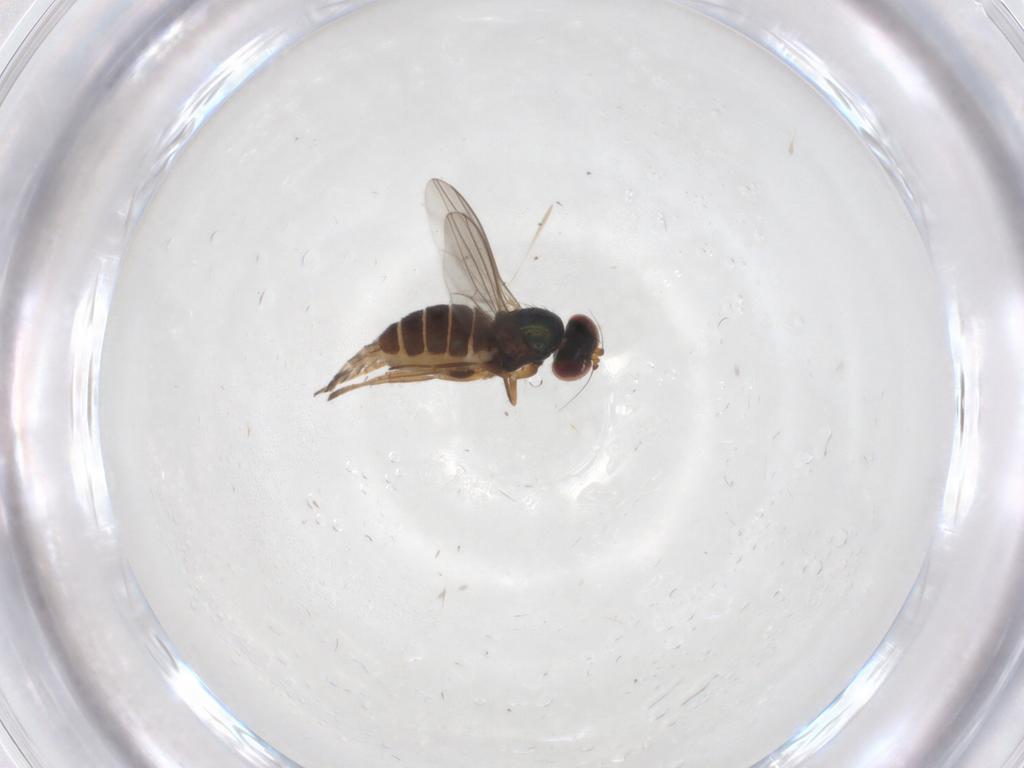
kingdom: Animalia
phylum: Arthropoda
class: Insecta
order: Diptera
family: Dolichopodidae
